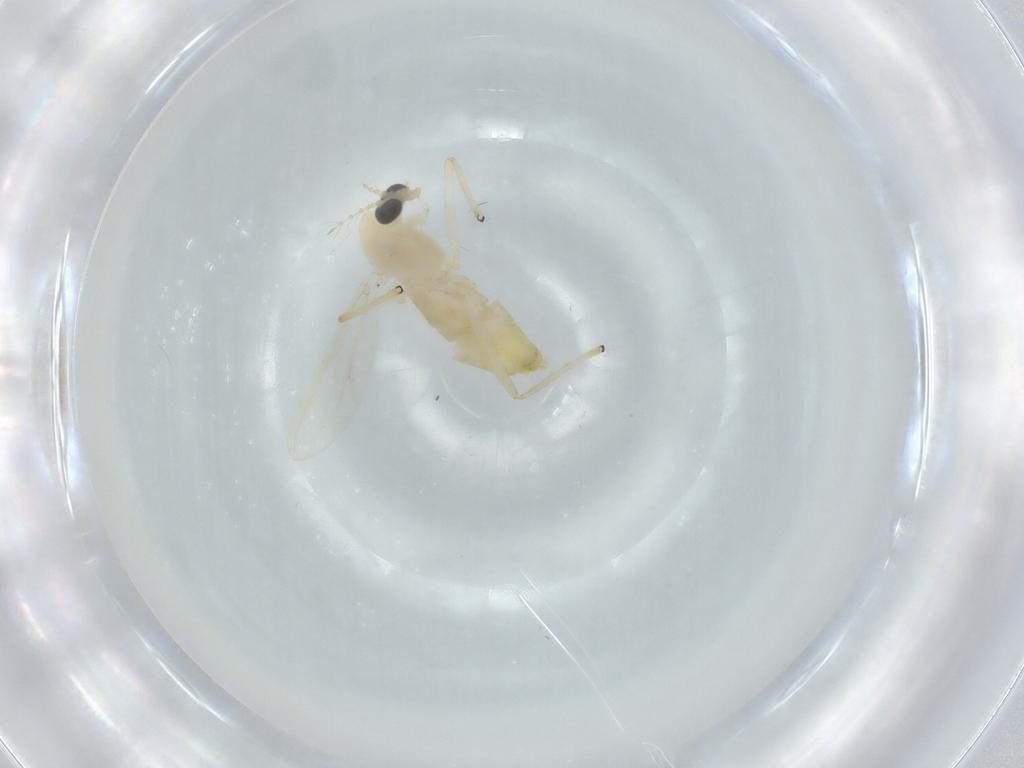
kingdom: Animalia
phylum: Arthropoda
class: Insecta
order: Diptera
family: Chironomidae
